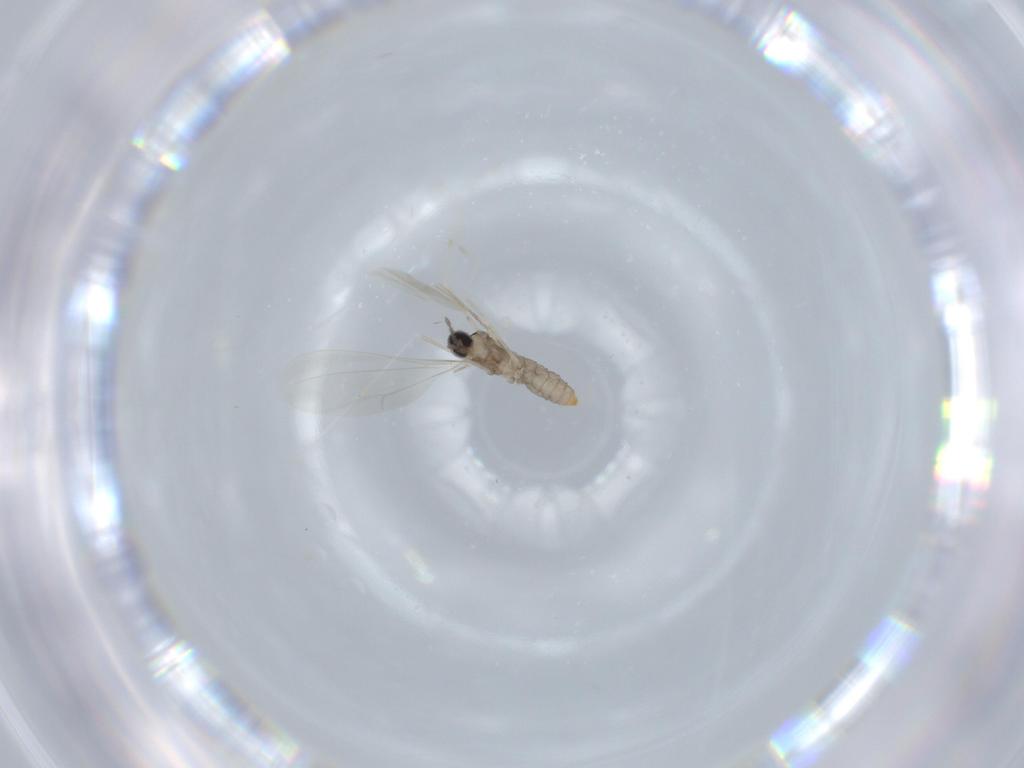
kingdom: Animalia
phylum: Arthropoda
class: Insecta
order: Diptera
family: Cecidomyiidae
